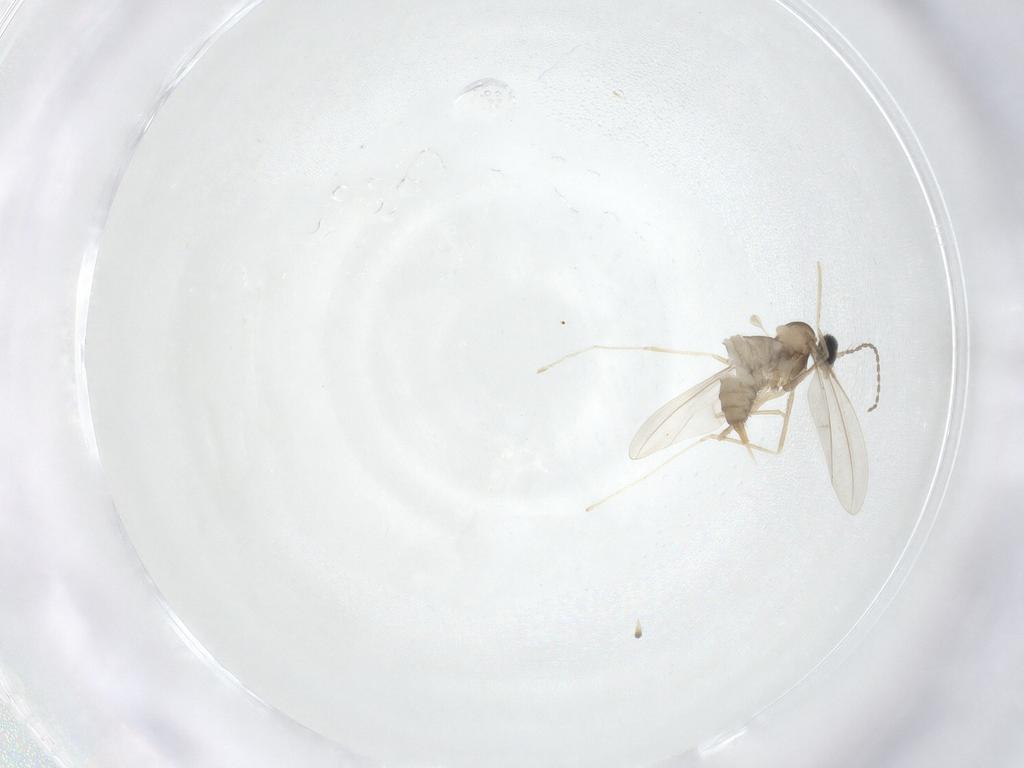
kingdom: Animalia
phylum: Arthropoda
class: Insecta
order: Diptera
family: Cecidomyiidae
